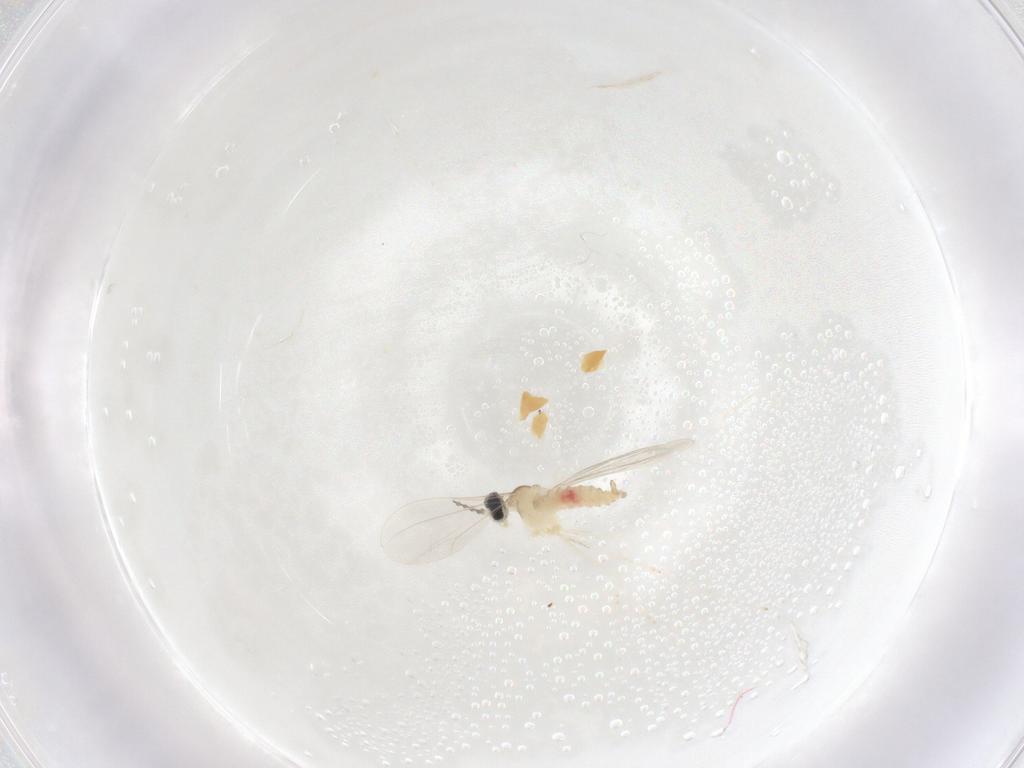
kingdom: Animalia
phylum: Arthropoda
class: Insecta
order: Diptera
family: Cecidomyiidae
